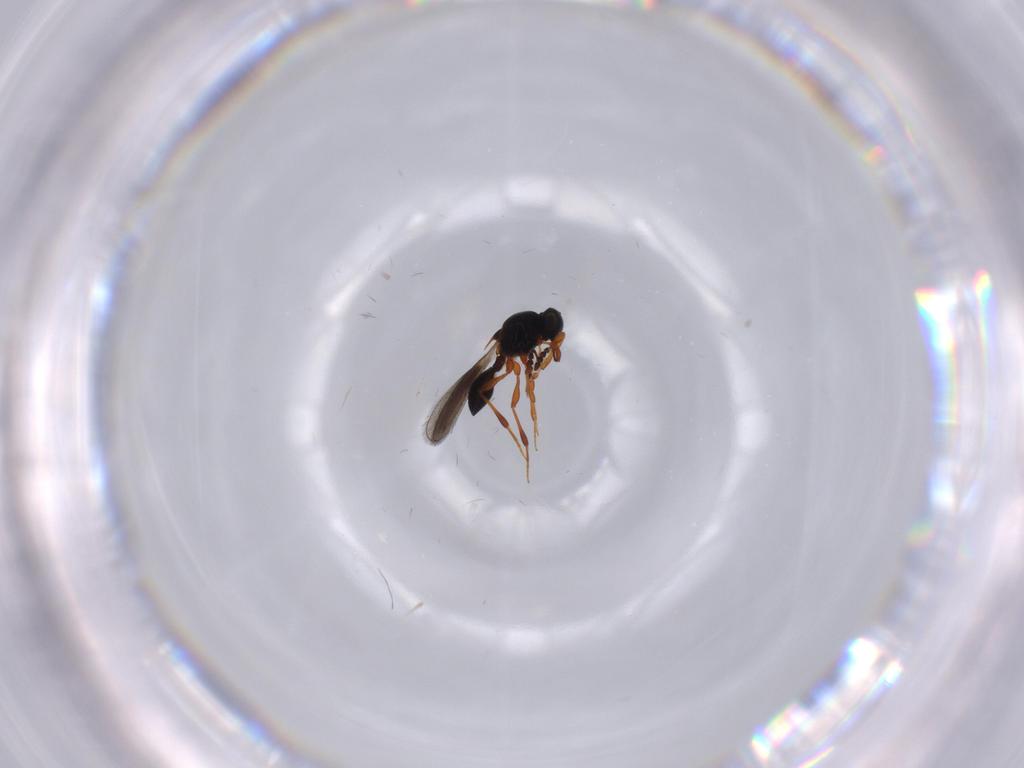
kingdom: Animalia
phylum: Arthropoda
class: Insecta
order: Hymenoptera
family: Platygastridae
